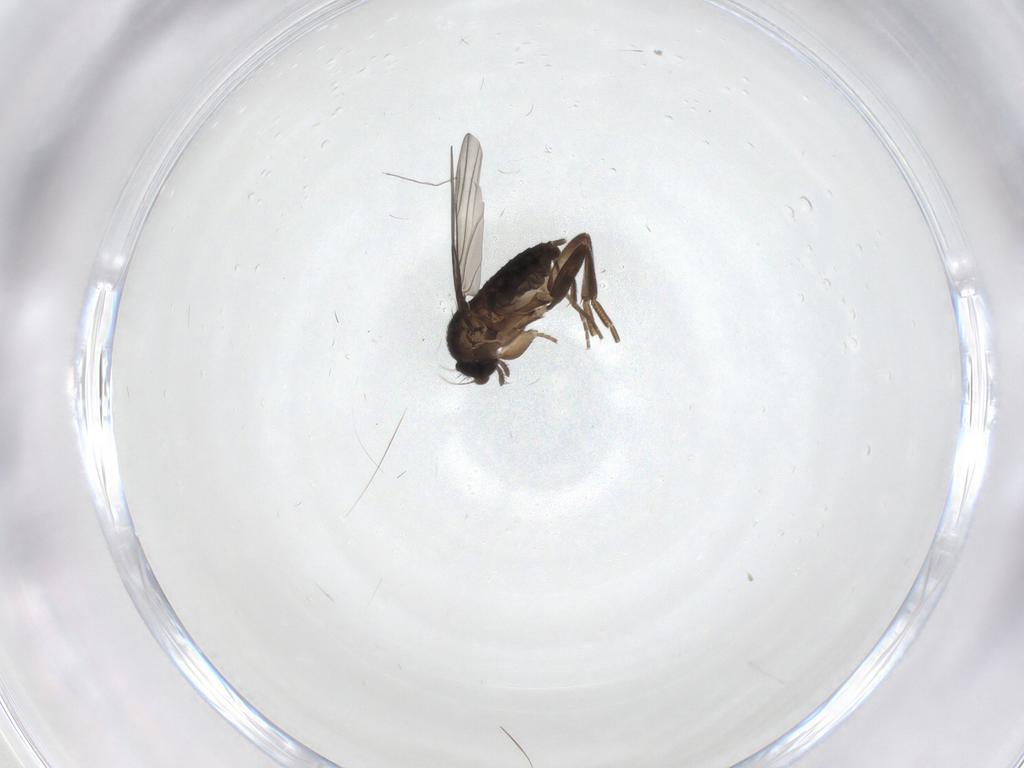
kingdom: Animalia
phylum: Arthropoda
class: Insecta
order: Diptera
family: Phoridae
